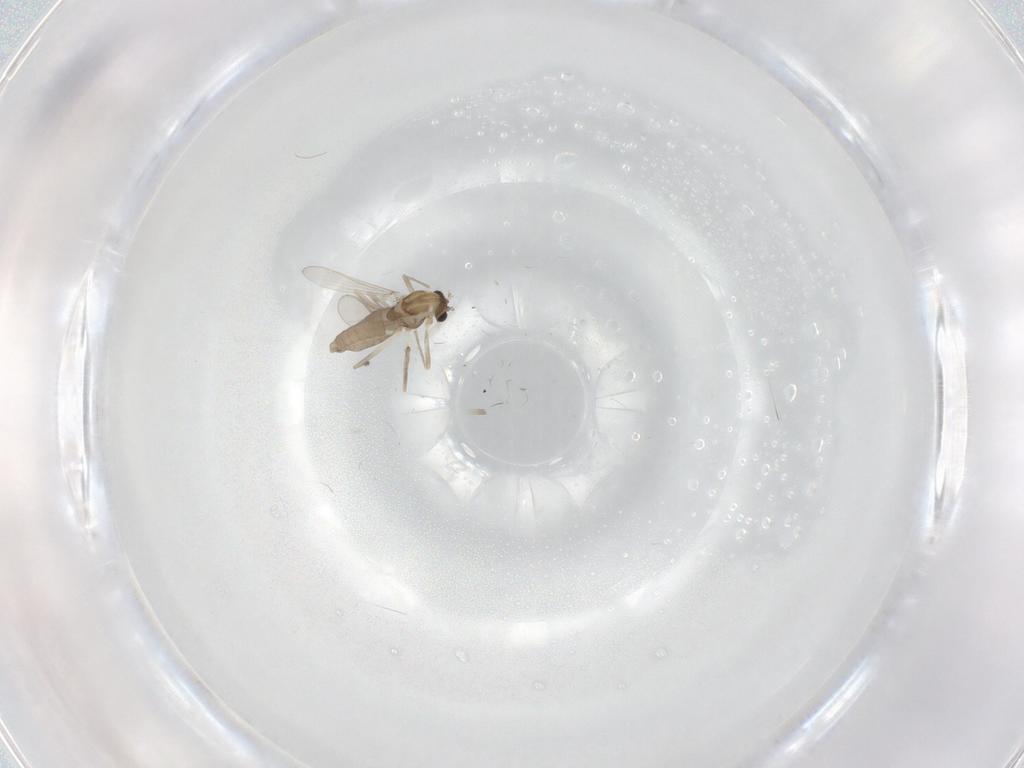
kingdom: Animalia
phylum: Arthropoda
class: Insecta
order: Diptera
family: Chironomidae
